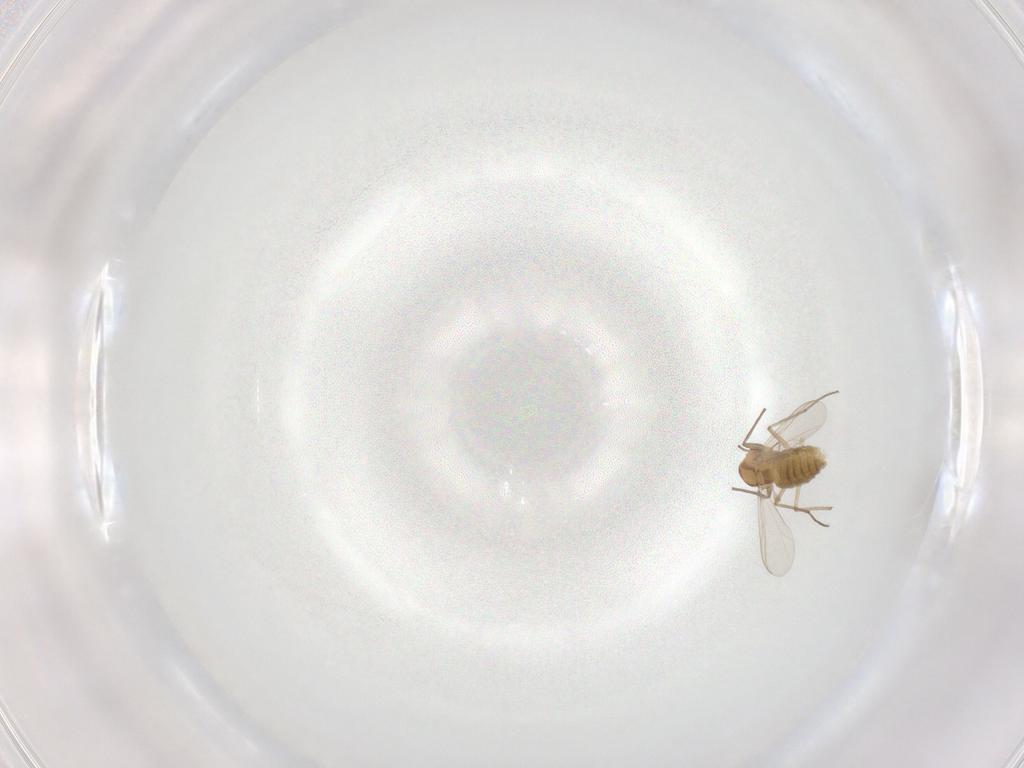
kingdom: Animalia
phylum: Arthropoda
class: Insecta
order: Diptera
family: Chironomidae
